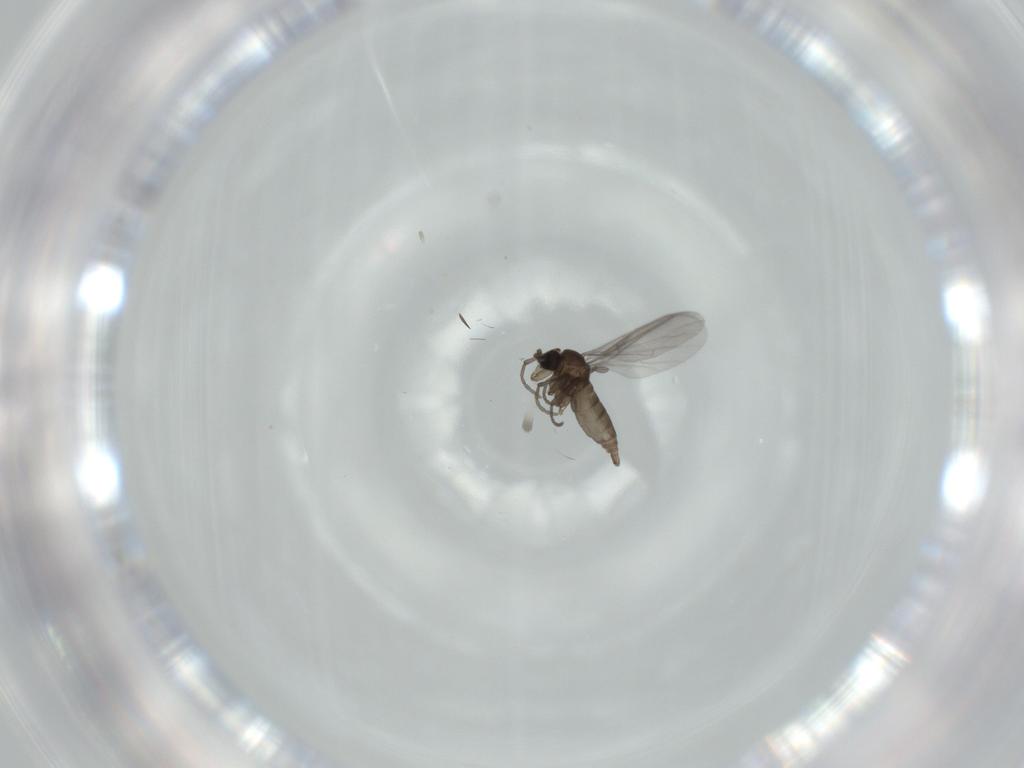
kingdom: Animalia
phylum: Arthropoda
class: Insecta
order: Diptera
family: Sciaridae
